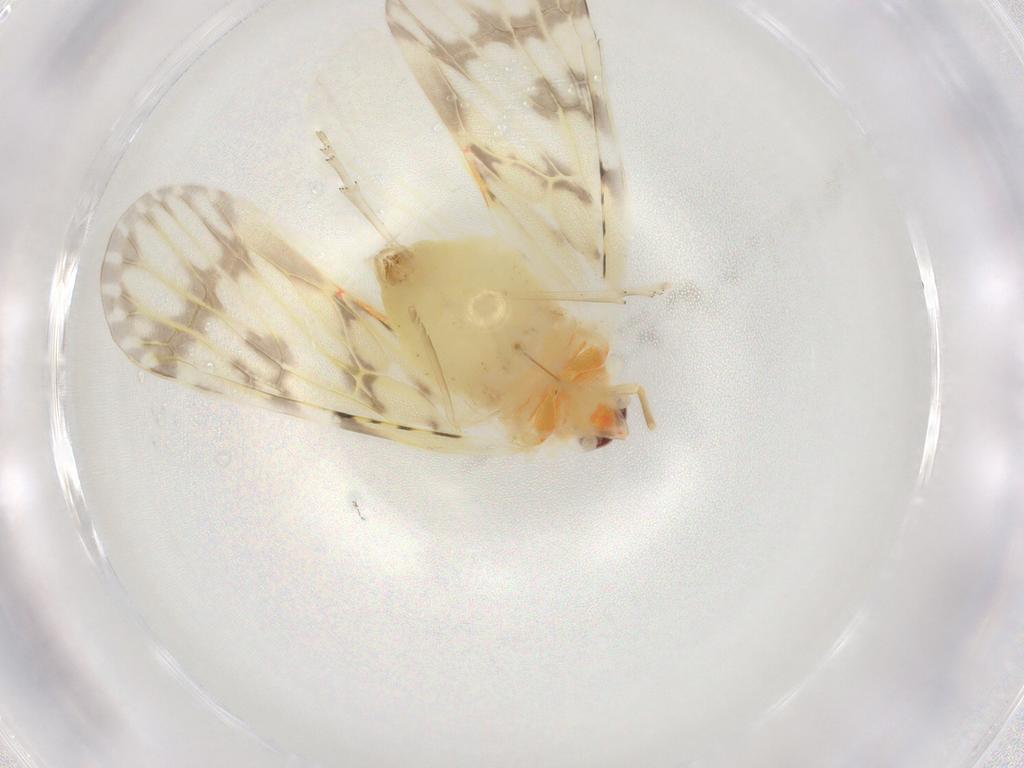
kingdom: Animalia
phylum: Arthropoda
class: Insecta
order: Hemiptera
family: Derbidae
